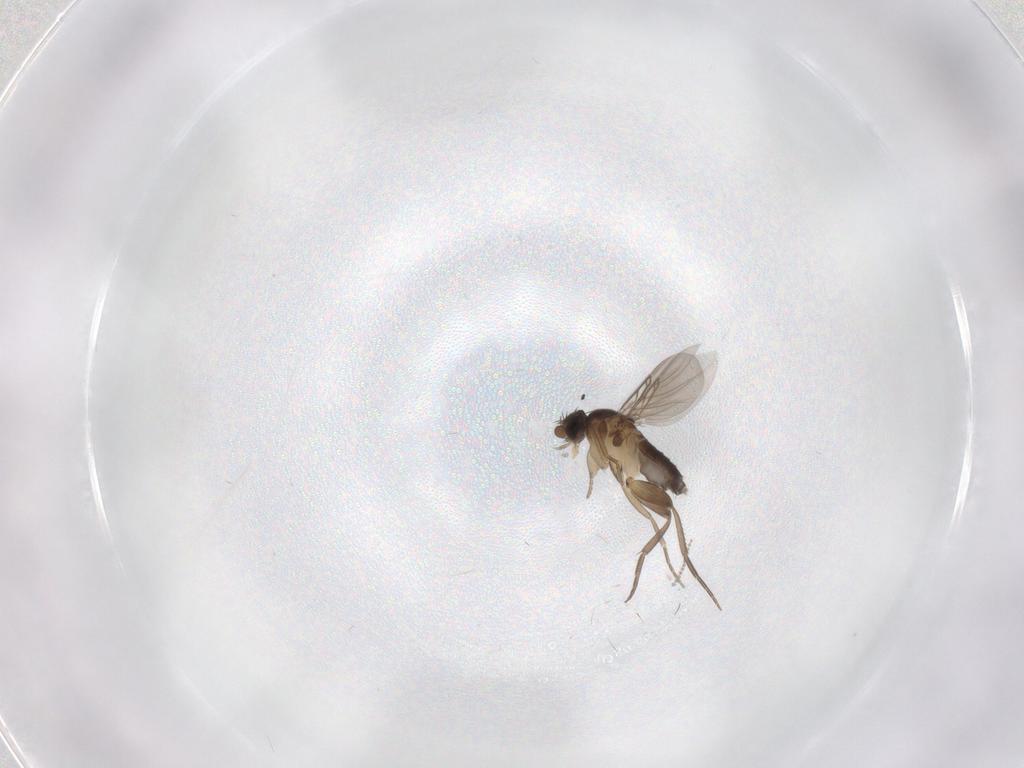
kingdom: Animalia
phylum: Arthropoda
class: Insecta
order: Diptera
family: Phoridae
